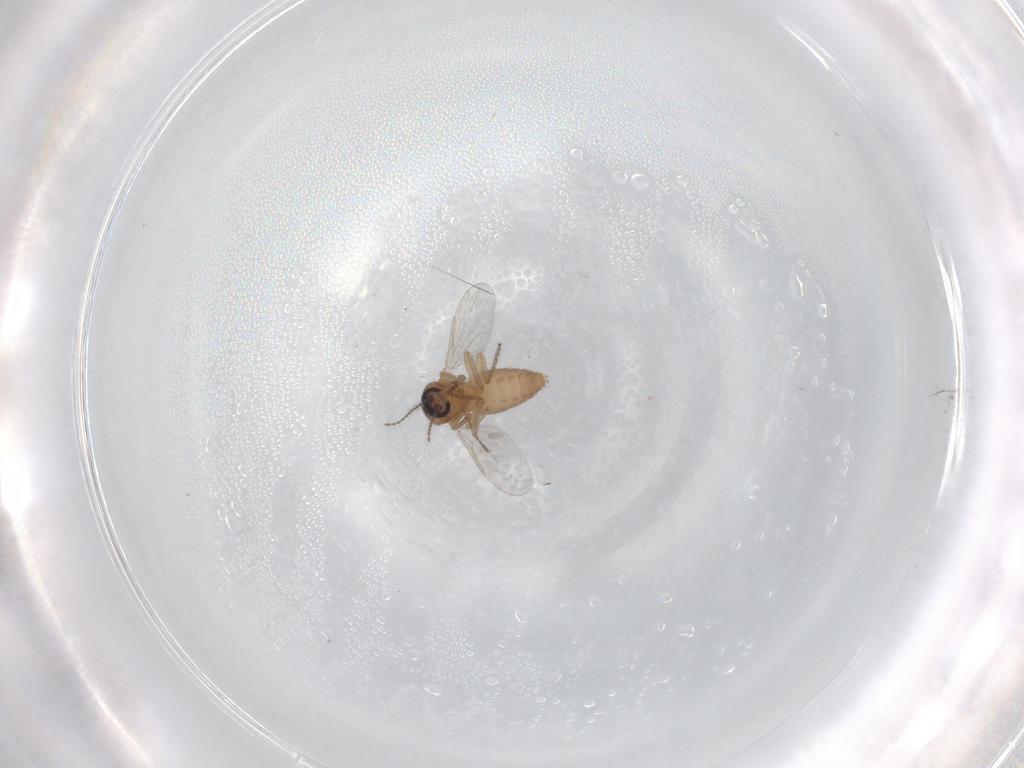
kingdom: Animalia
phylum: Arthropoda
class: Insecta
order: Diptera
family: Ceratopogonidae
